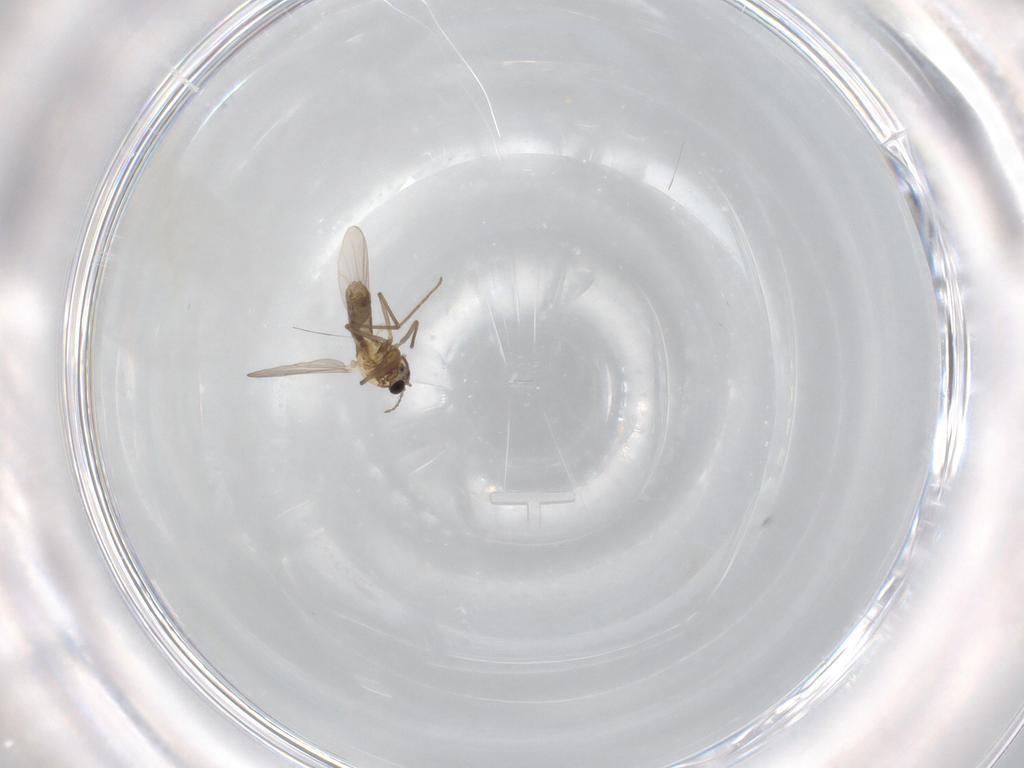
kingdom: Animalia
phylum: Arthropoda
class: Insecta
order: Diptera
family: Chironomidae
